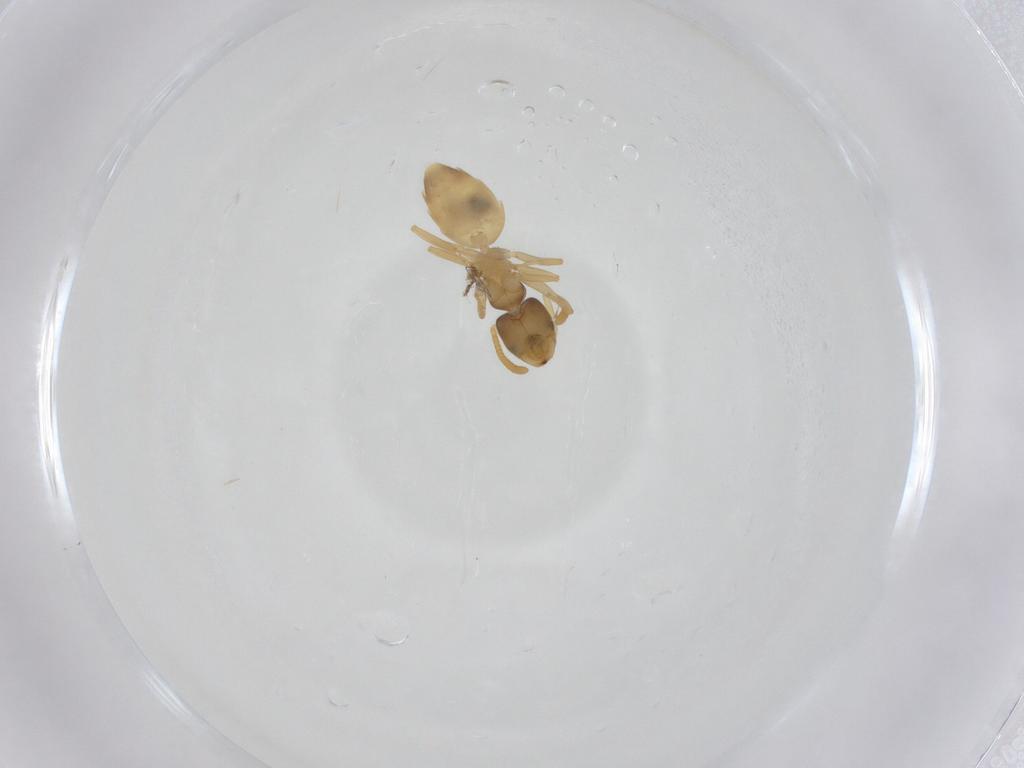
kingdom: Animalia
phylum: Arthropoda
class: Insecta
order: Hymenoptera
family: Formicidae
